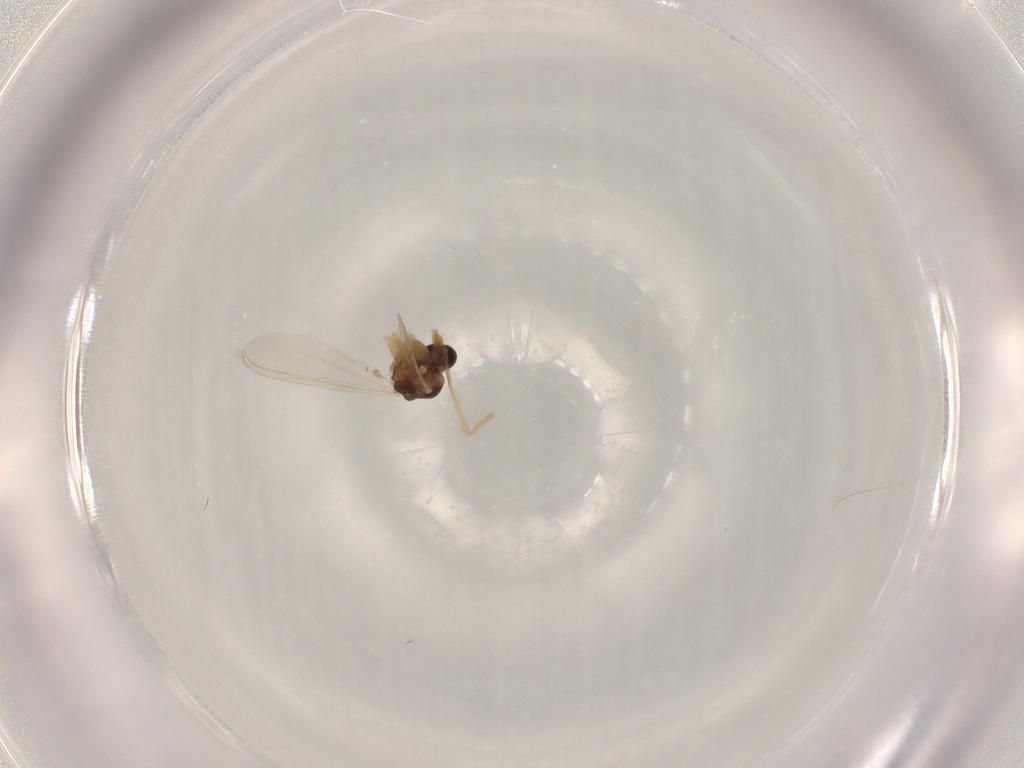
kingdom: Animalia
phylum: Arthropoda
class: Insecta
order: Diptera
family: Chironomidae
